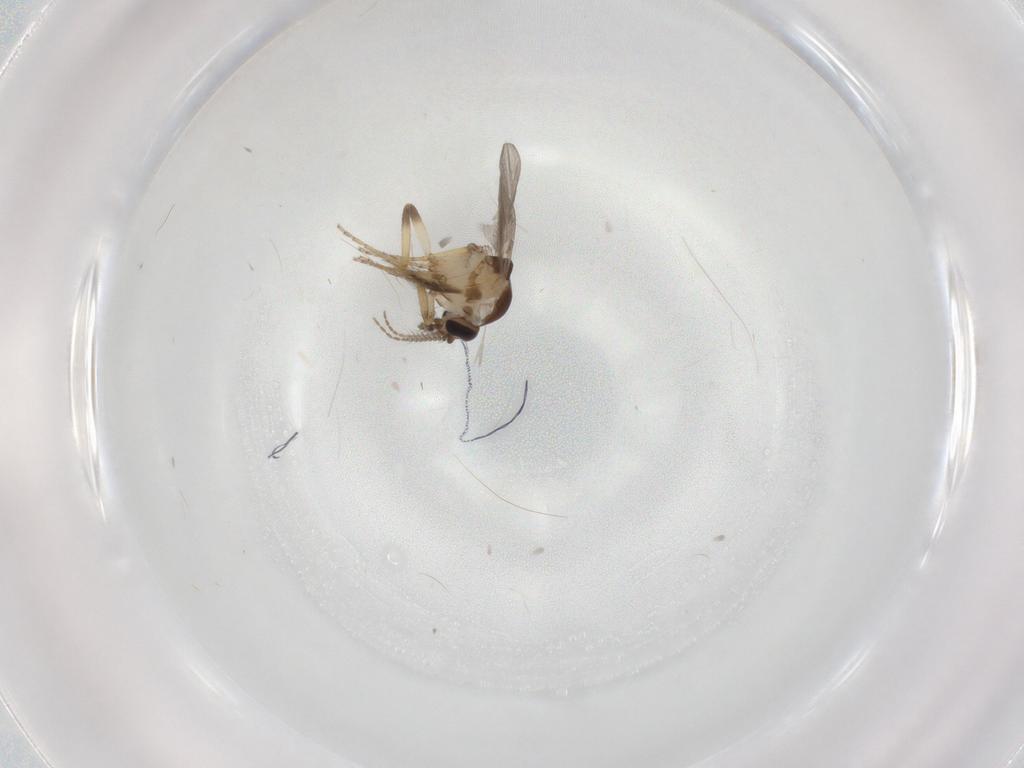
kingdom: Animalia
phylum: Arthropoda
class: Insecta
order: Diptera
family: Ceratopogonidae
